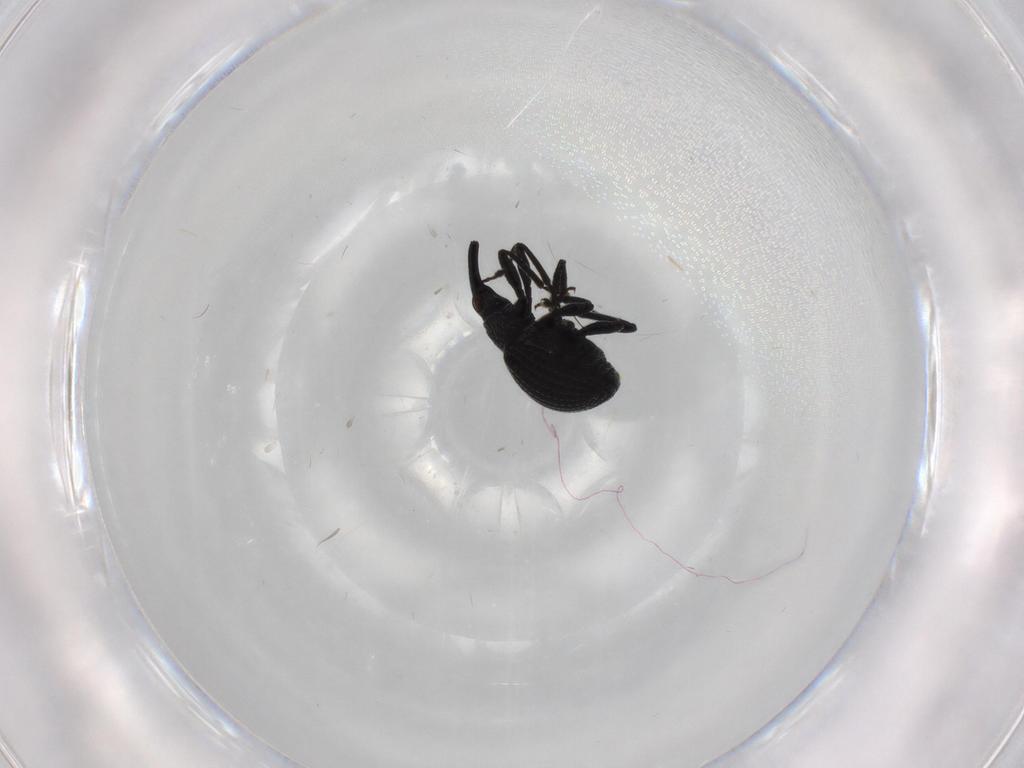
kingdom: Animalia
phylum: Arthropoda
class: Insecta
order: Coleoptera
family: Brentidae
